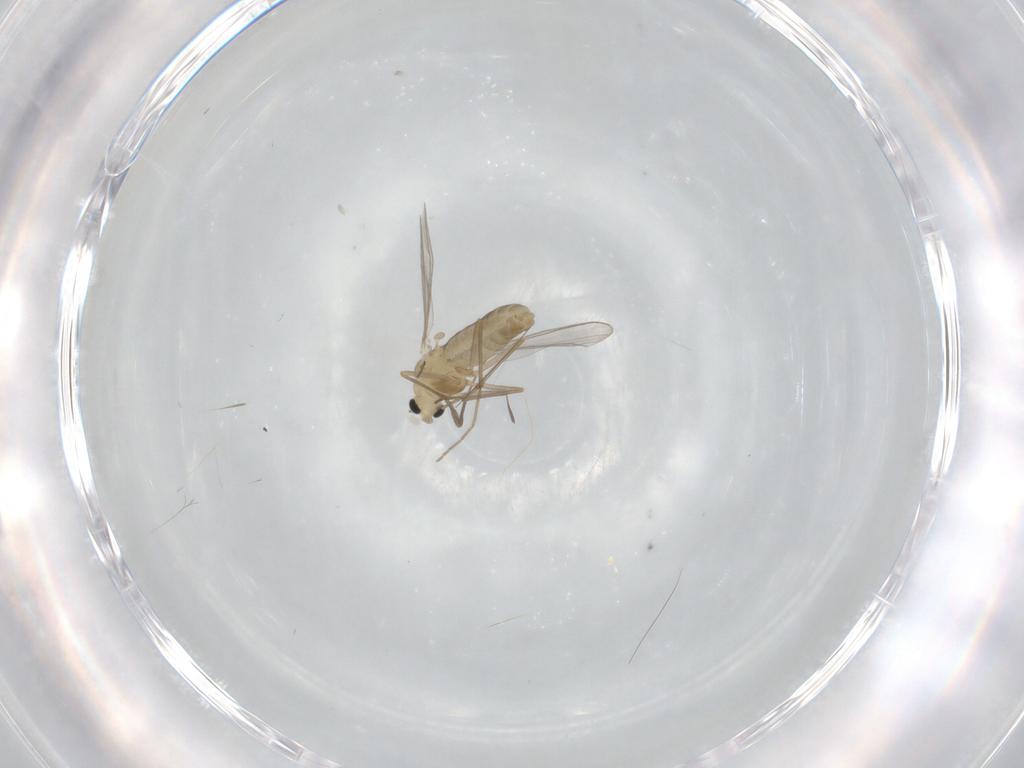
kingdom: Animalia
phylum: Arthropoda
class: Insecta
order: Diptera
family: Chironomidae
